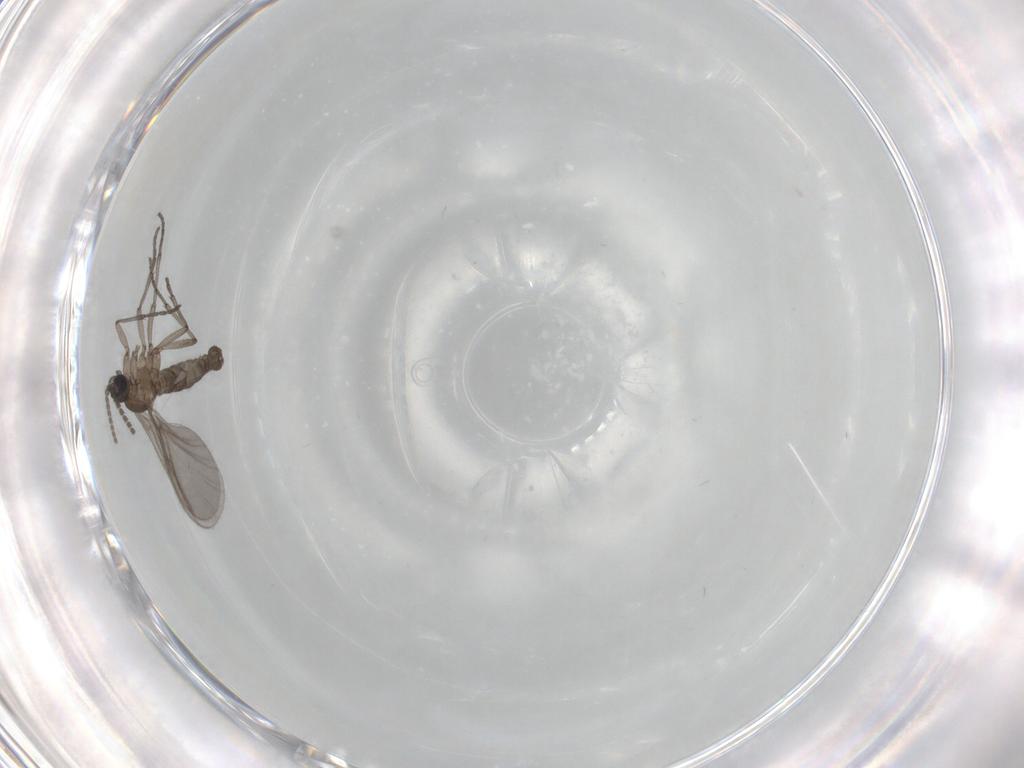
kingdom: Animalia
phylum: Arthropoda
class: Insecta
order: Diptera
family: Sciaridae
